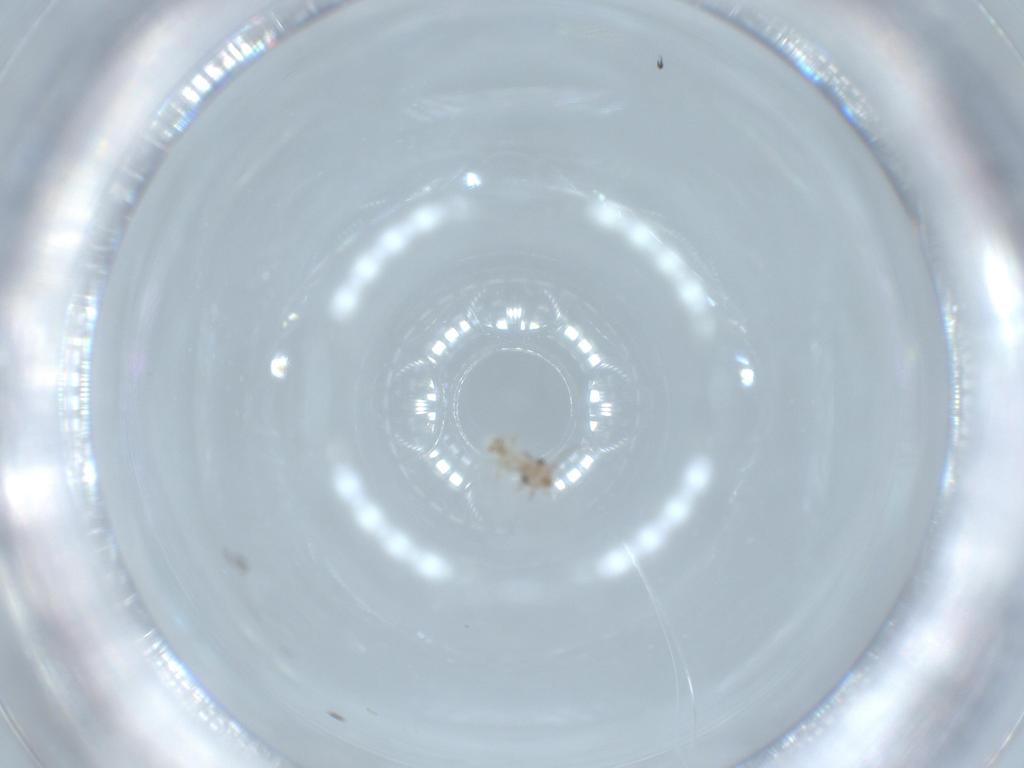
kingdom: Animalia
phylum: Arthropoda
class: Insecta
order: Psocodea
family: Lepidopsocidae
